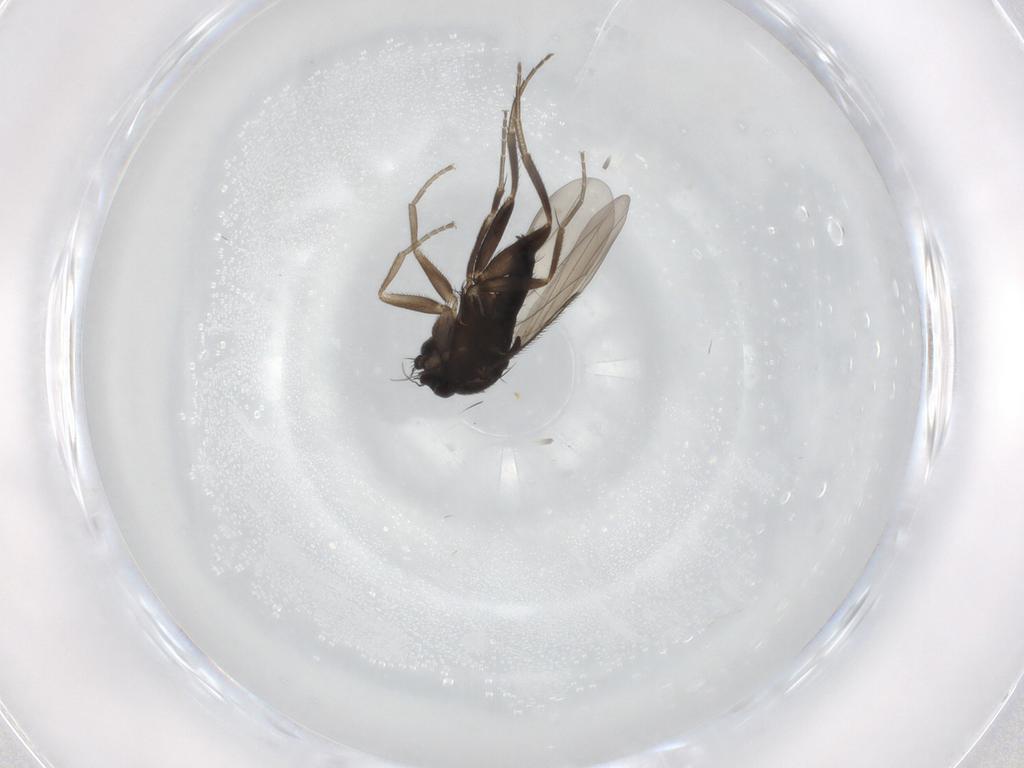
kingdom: Animalia
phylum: Arthropoda
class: Insecta
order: Diptera
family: Phoridae
